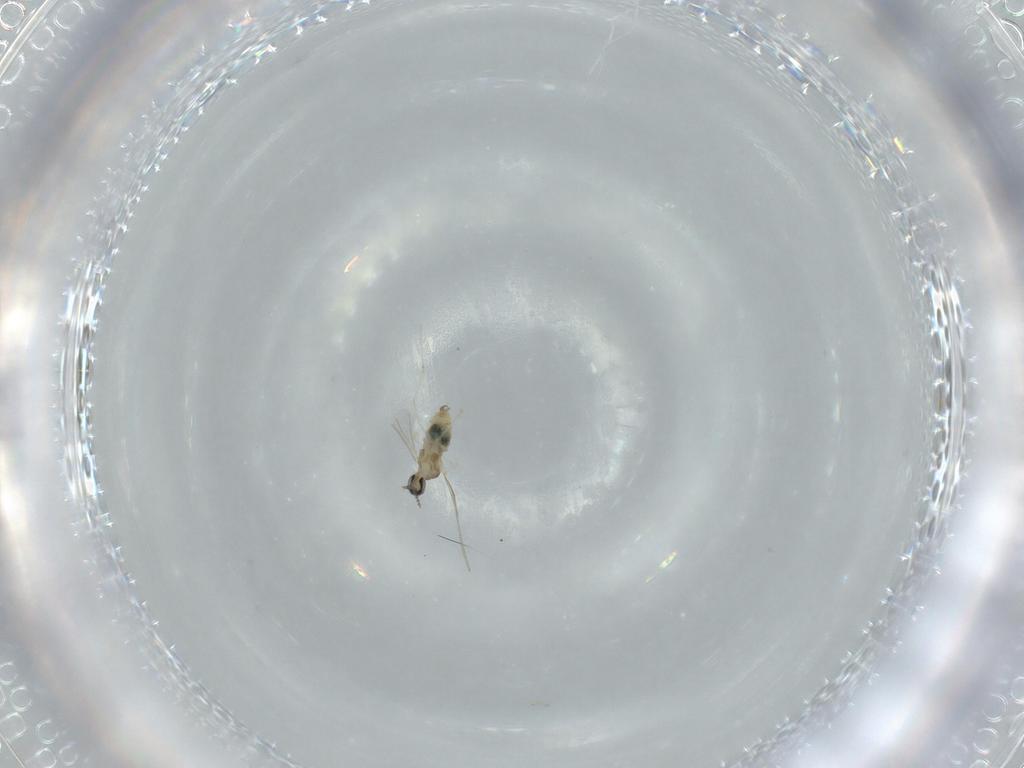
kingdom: Animalia
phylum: Arthropoda
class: Insecta
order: Diptera
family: Cecidomyiidae
